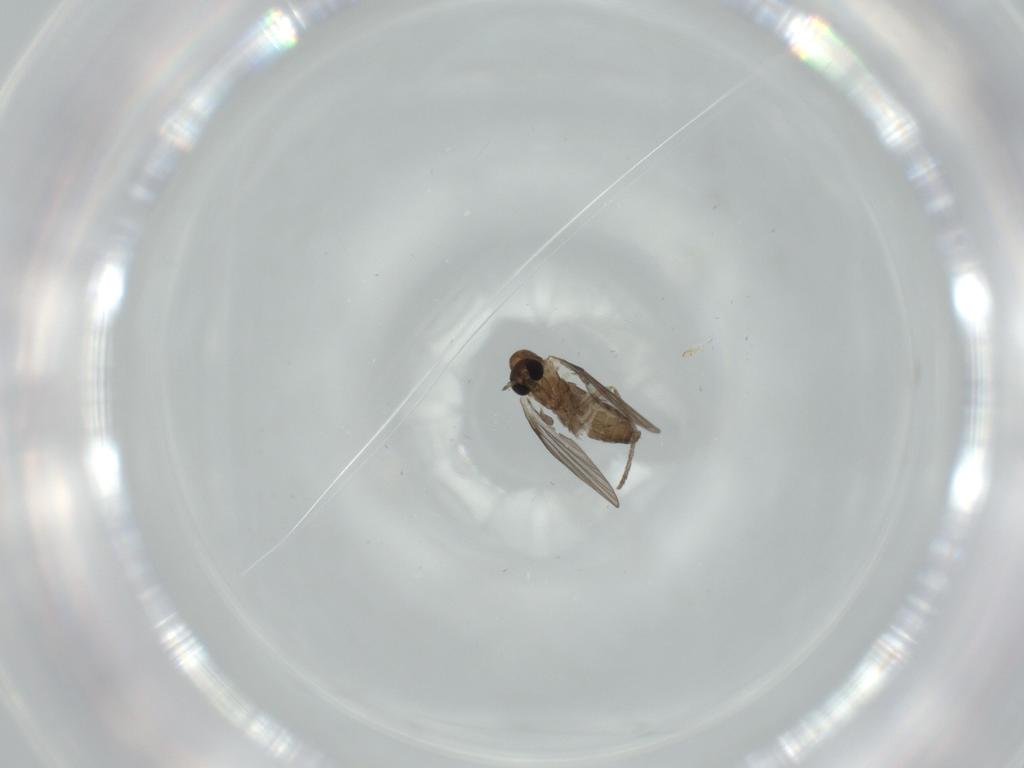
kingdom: Animalia
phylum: Arthropoda
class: Insecta
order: Diptera
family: Psychodidae
